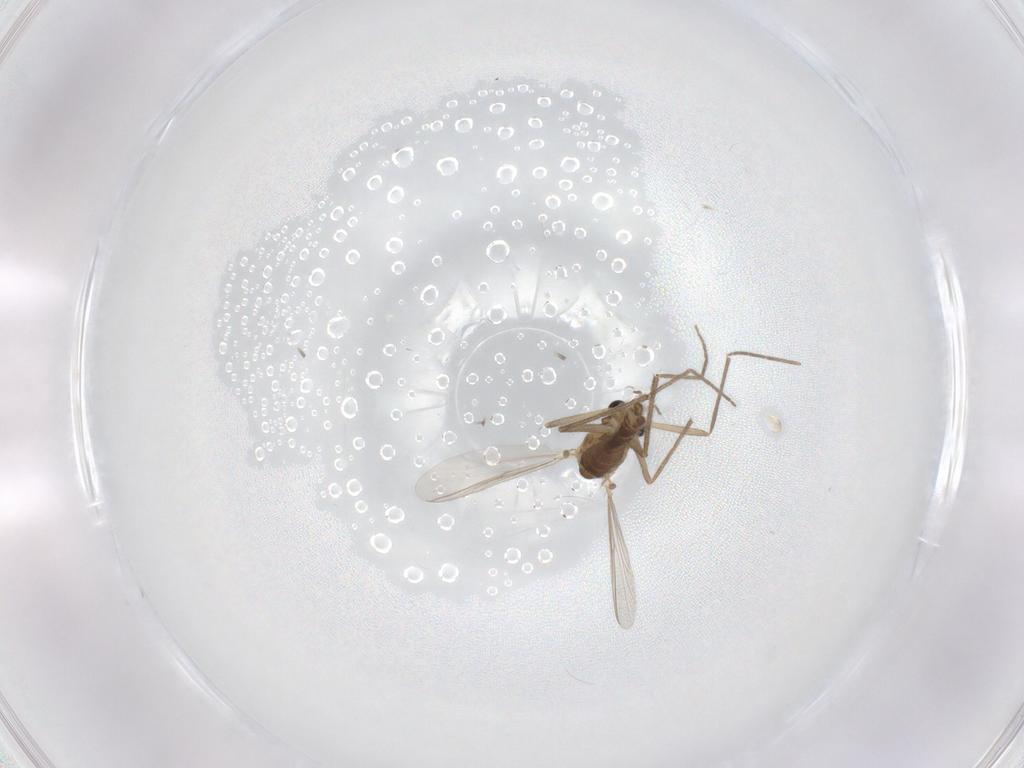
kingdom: Animalia
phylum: Arthropoda
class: Insecta
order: Diptera
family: Chironomidae
